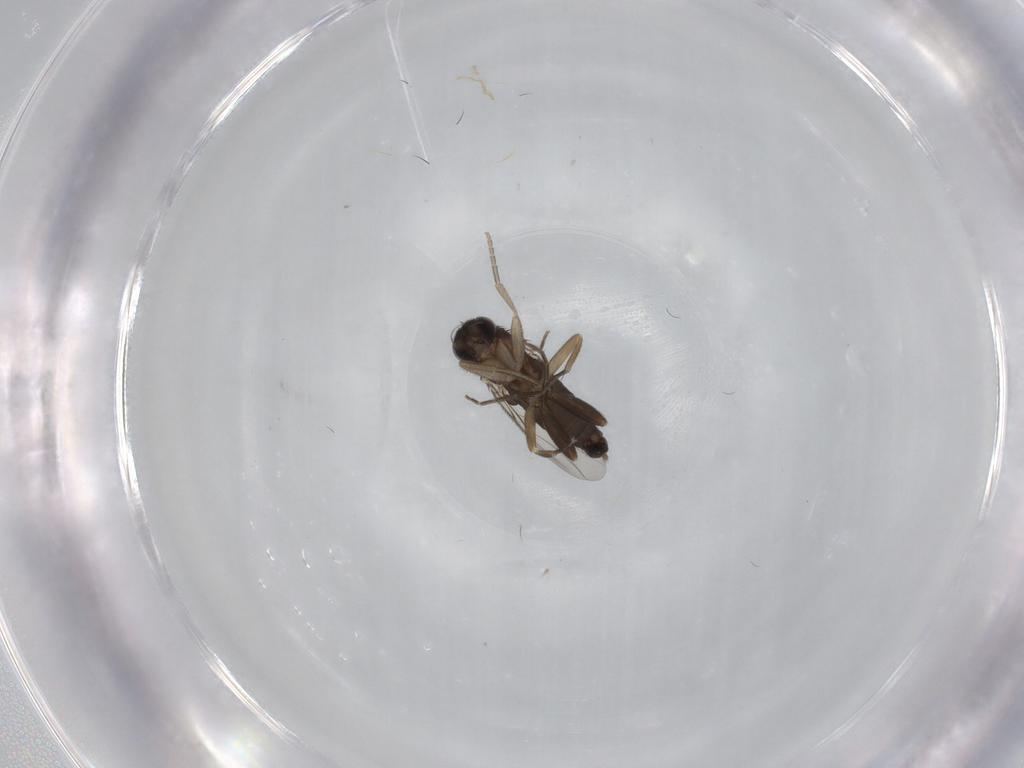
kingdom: Animalia
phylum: Arthropoda
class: Insecta
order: Diptera
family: Phoridae
